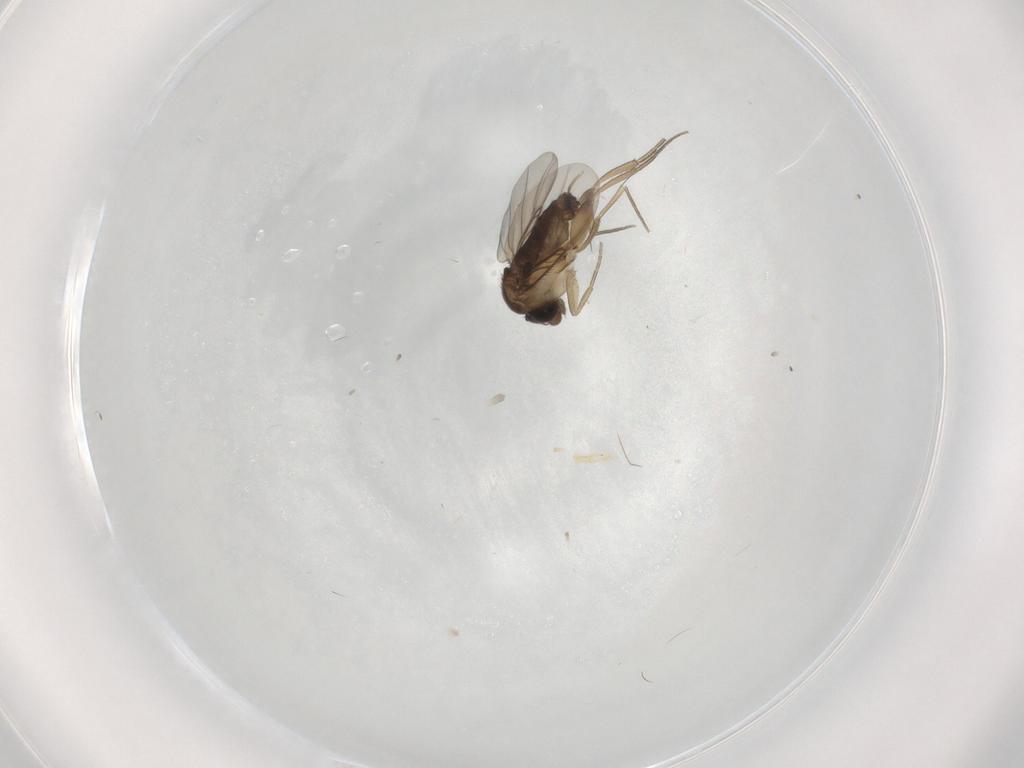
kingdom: Animalia
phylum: Arthropoda
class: Insecta
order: Diptera
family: Phoridae
